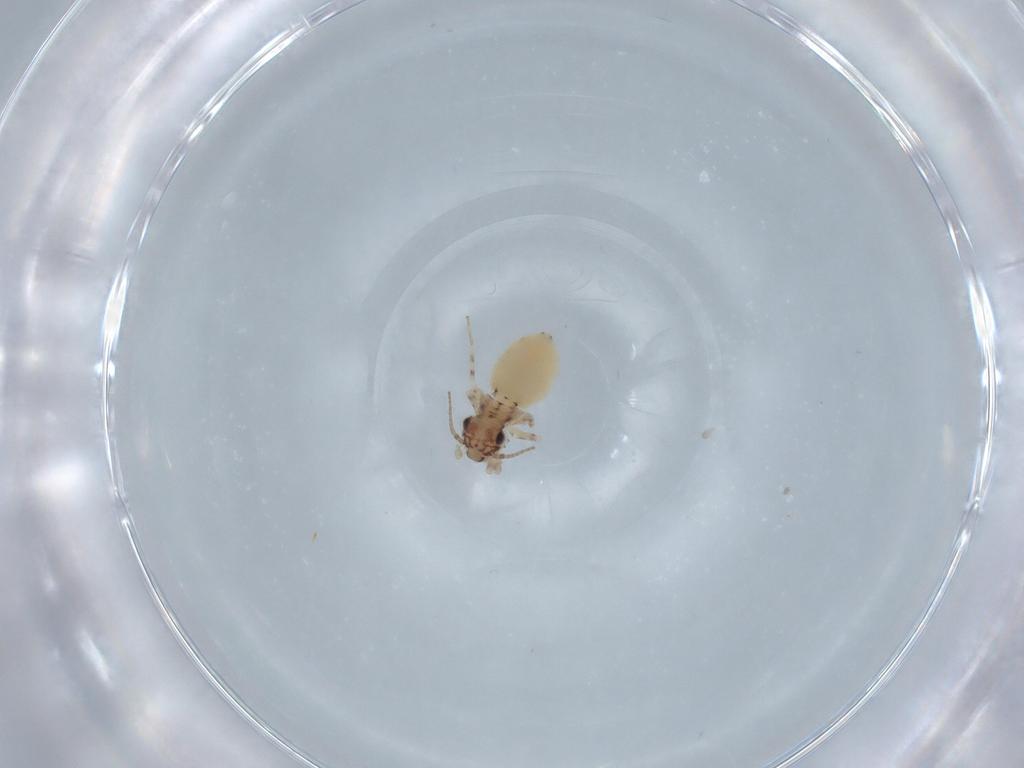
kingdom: Animalia
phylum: Arthropoda
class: Insecta
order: Psocodea
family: Lepidopsocidae
